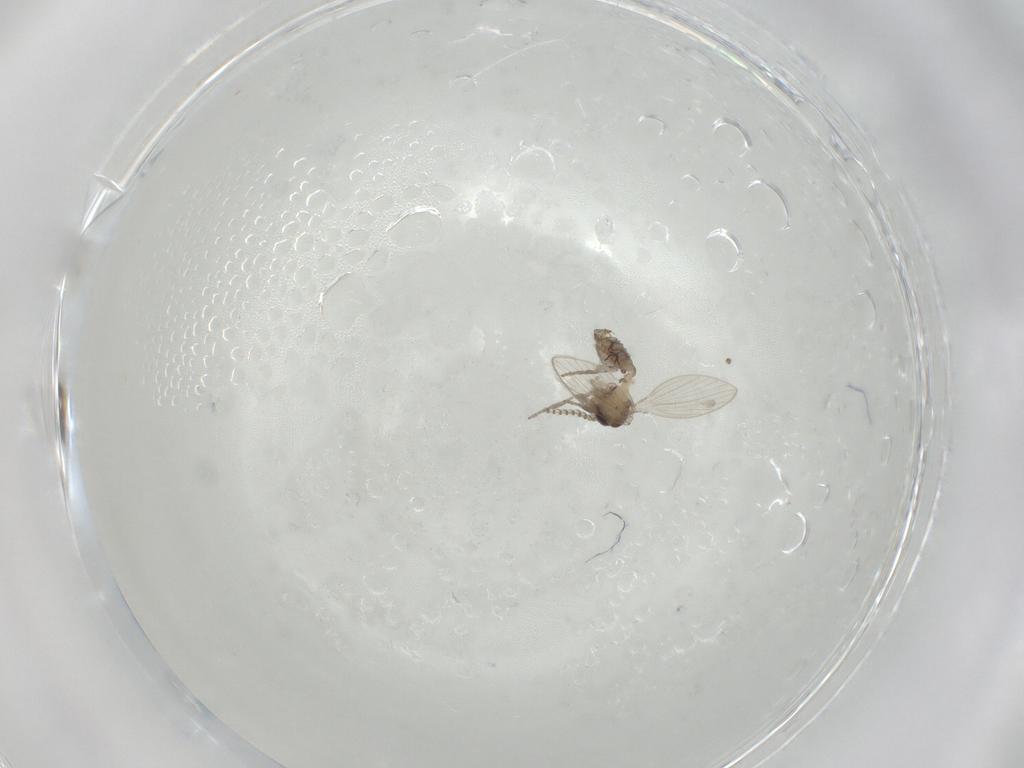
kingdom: Animalia
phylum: Arthropoda
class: Insecta
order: Diptera
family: Psychodidae
